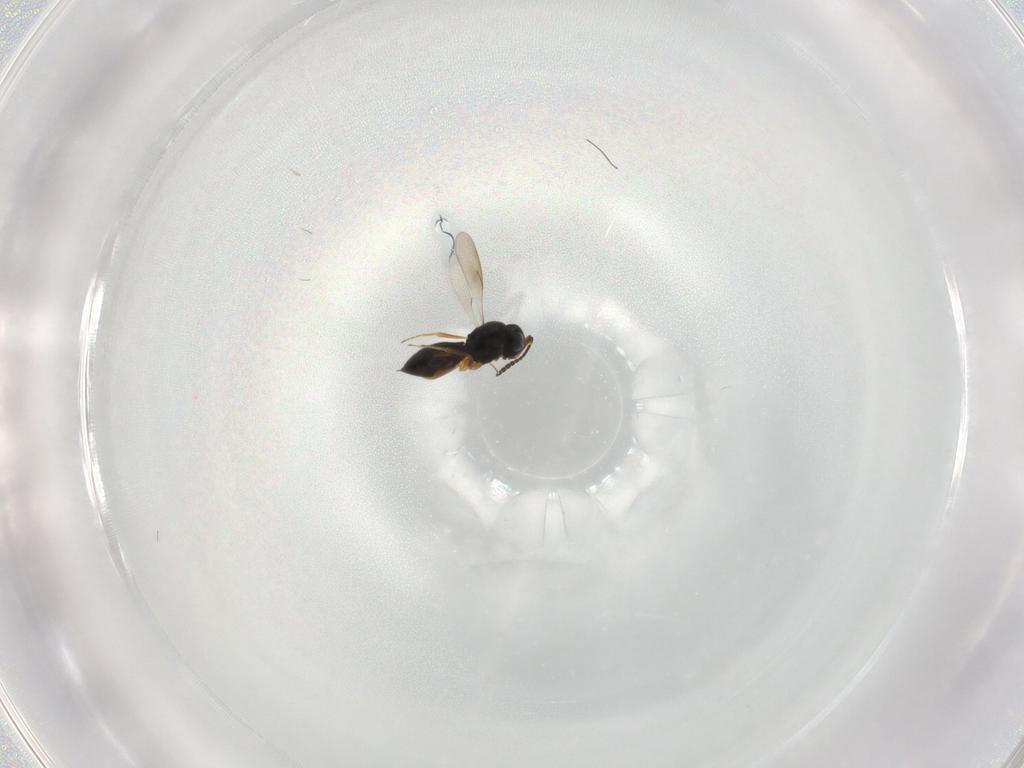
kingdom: Animalia
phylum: Arthropoda
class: Insecta
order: Hymenoptera
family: Scelionidae
